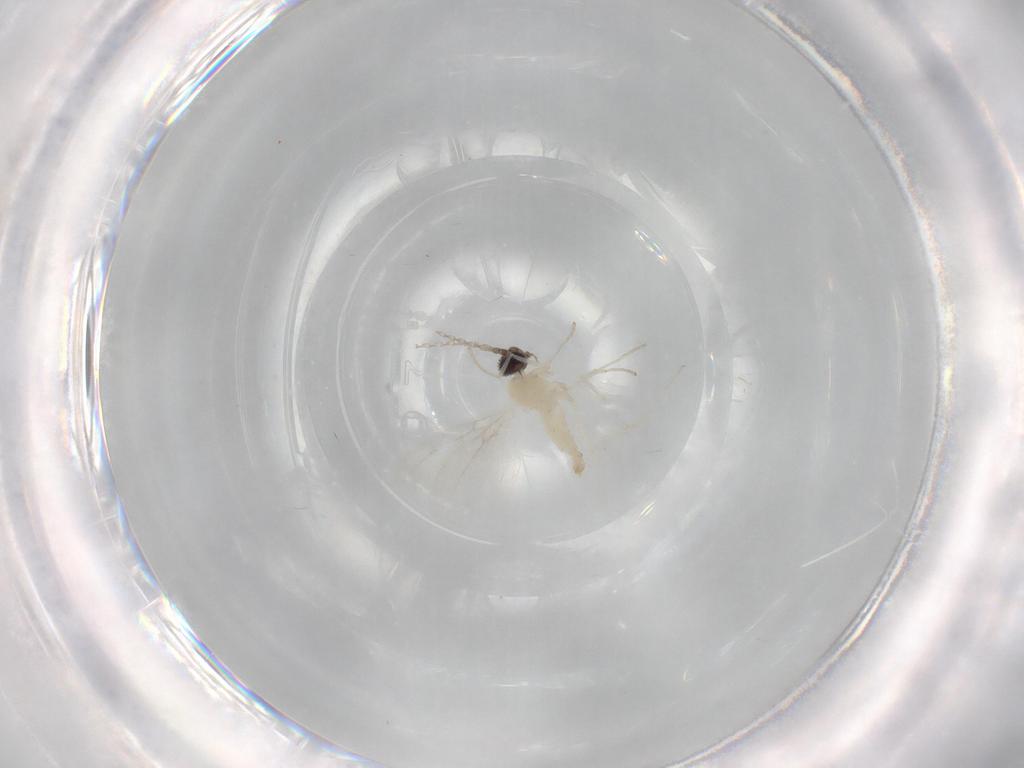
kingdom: Animalia
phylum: Arthropoda
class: Insecta
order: Diptera
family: Cecidomyiidae
